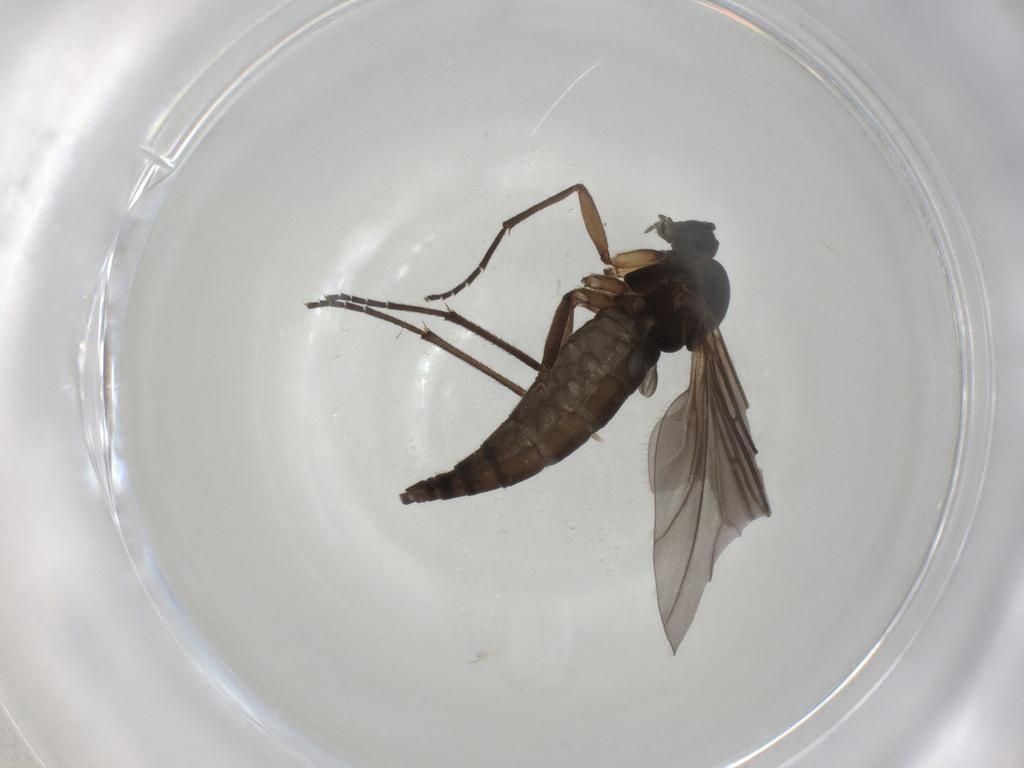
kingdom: Animalia
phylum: Arthropoda
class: Insecta
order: Diptera
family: Sciaridae
